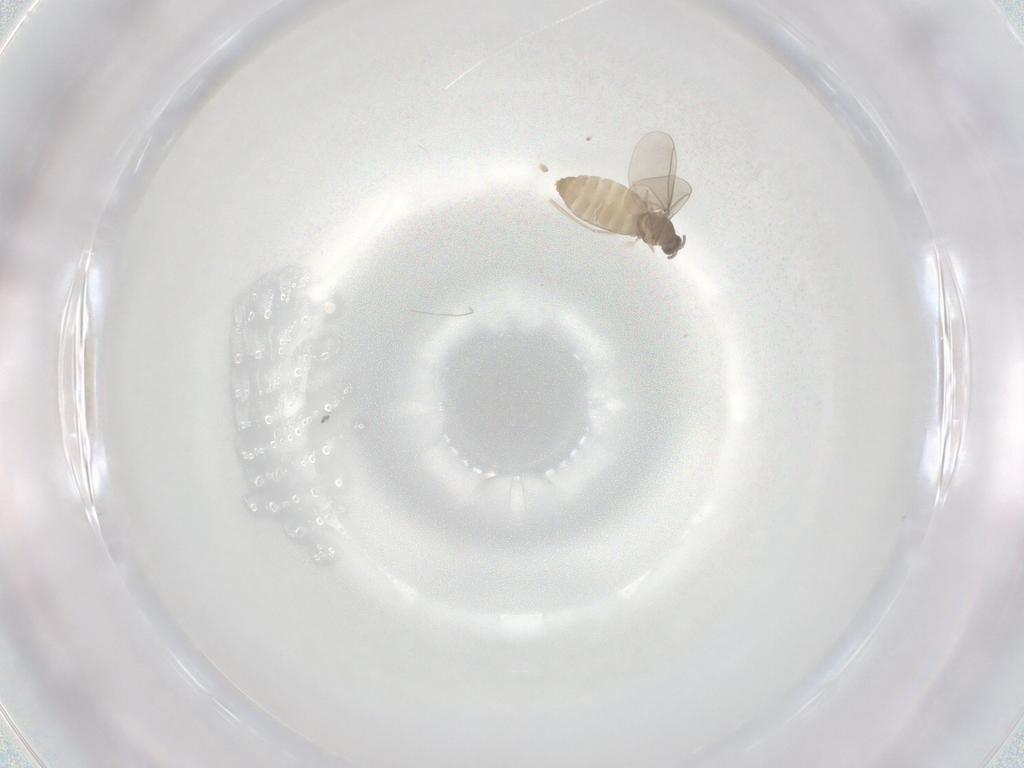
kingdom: Animalia
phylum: Arthropoda
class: Insecta
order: Diptera
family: Cecidomyiidae
